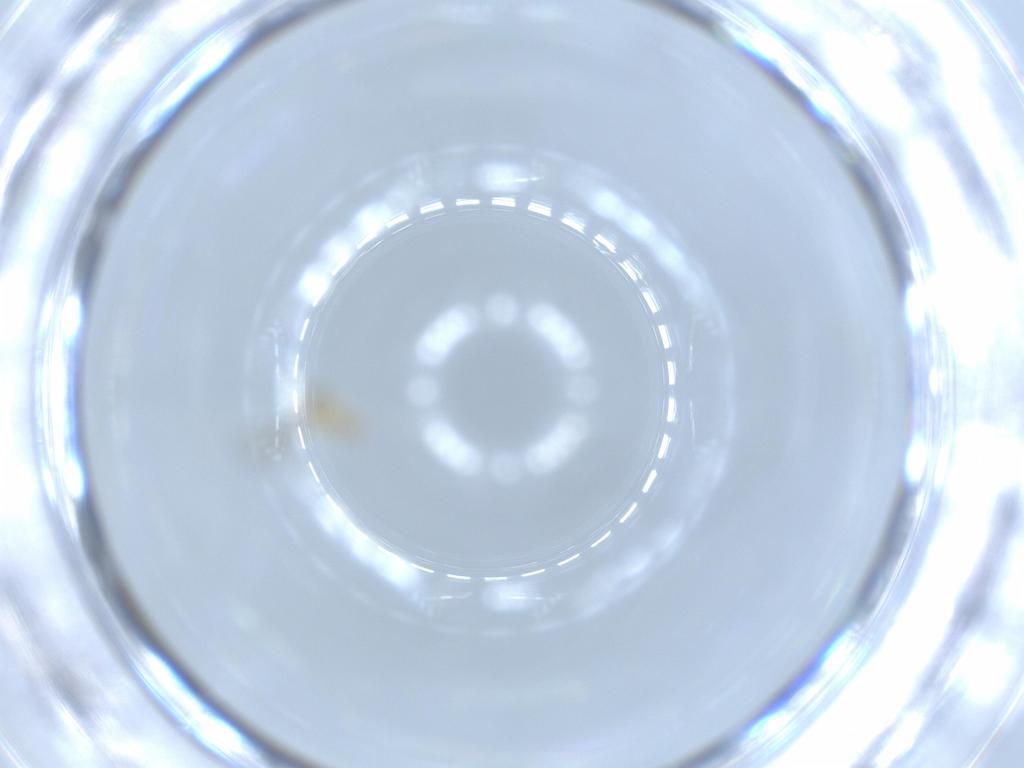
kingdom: Animalia
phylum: Arthropoda
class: Insecta
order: Diptera
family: Cecidomyiidae
